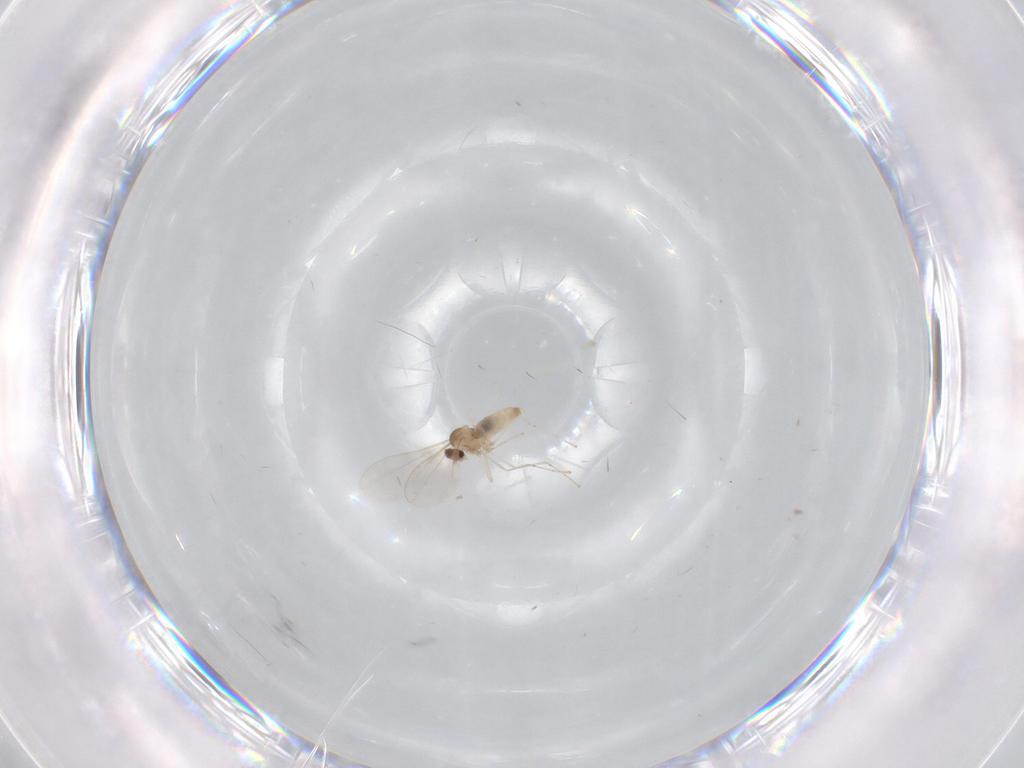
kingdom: Animalia
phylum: Arthropoda
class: Insecta
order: Diptera
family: Cecidomyiidae
